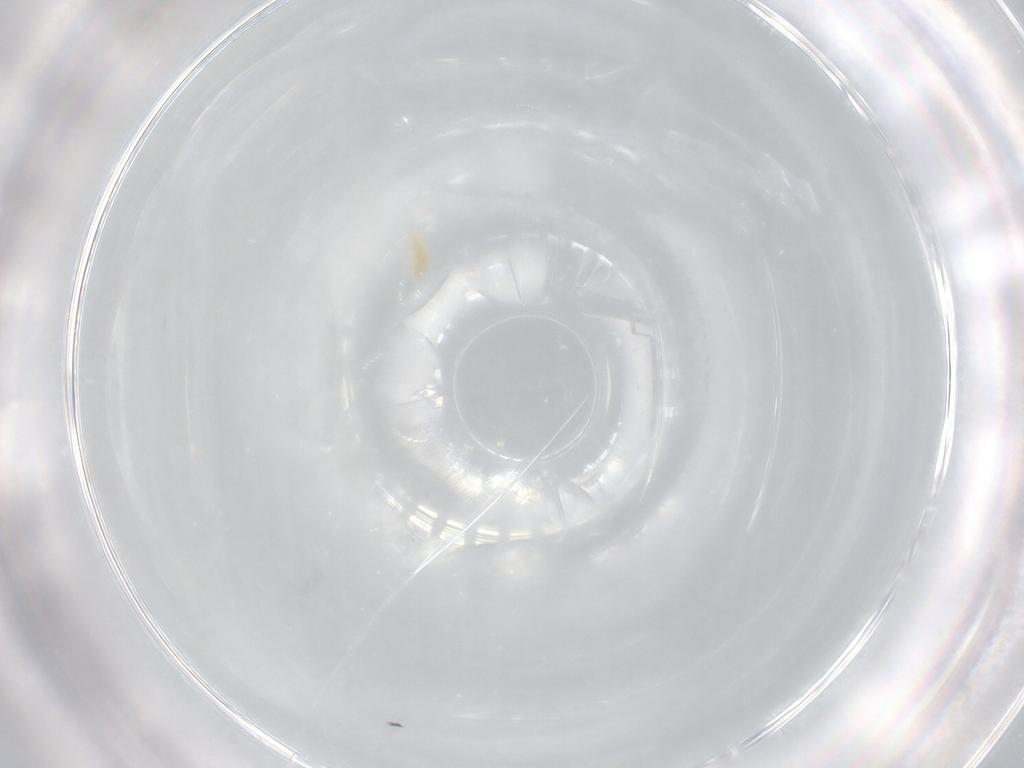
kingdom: Animalia
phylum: Arthropoda
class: Arachnida
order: Trombidiformes
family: Eupodidae
